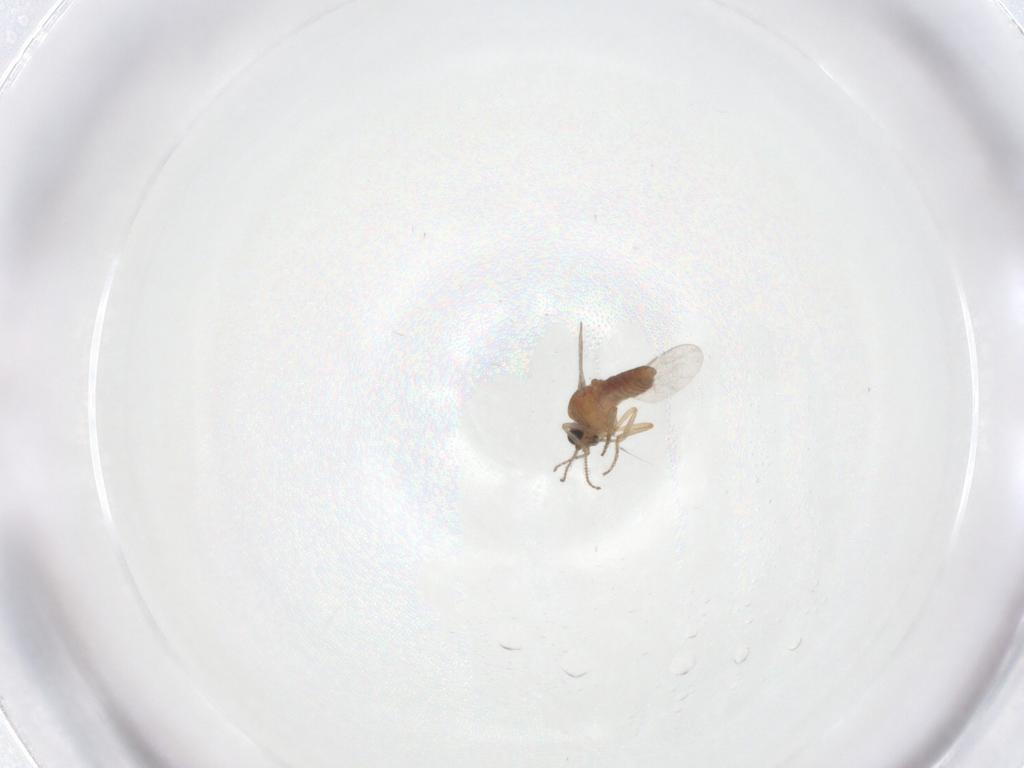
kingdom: Animalia
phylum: Arthropoda
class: Insecta
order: Diptera
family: Ceratopogonidae
